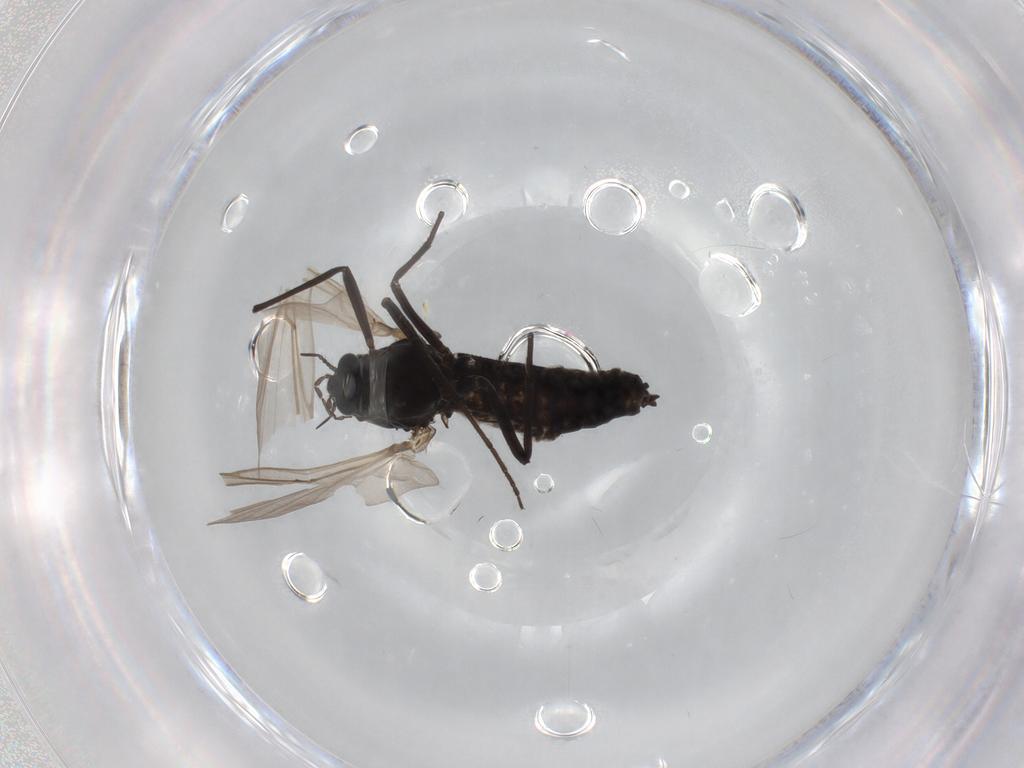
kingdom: Animalia
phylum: Arthropoda
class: Insecta
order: Diptera
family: Chironomidae
